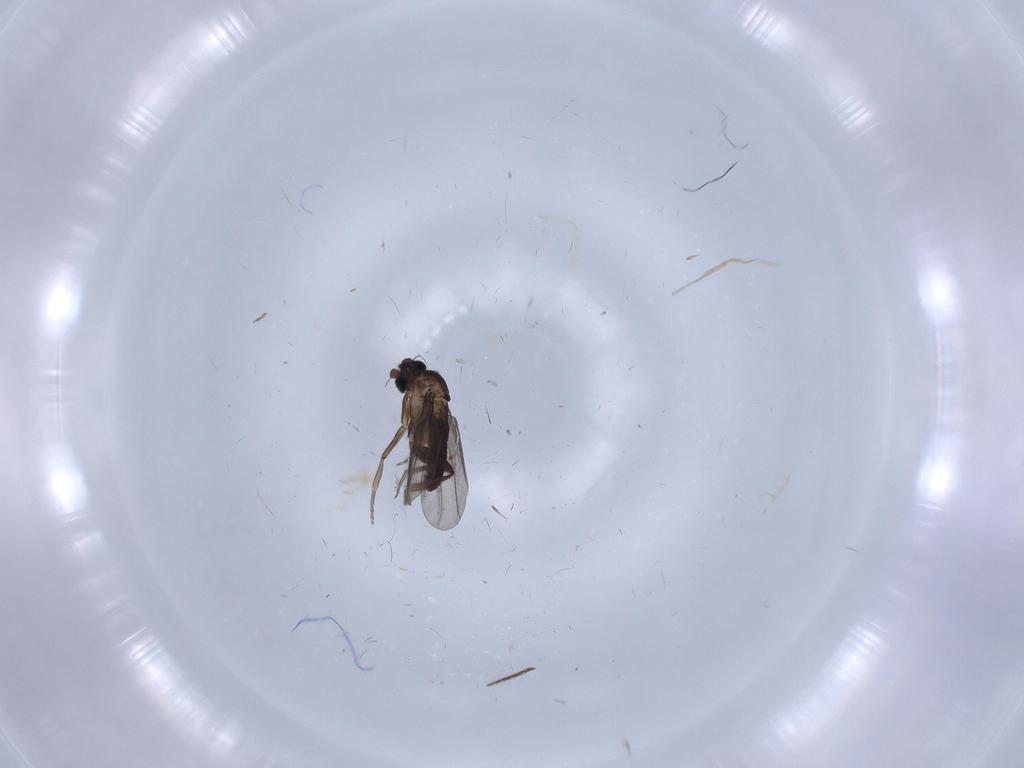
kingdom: Animalia
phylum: Arthropoda
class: Insecta
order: Diptera
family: Phoridae
